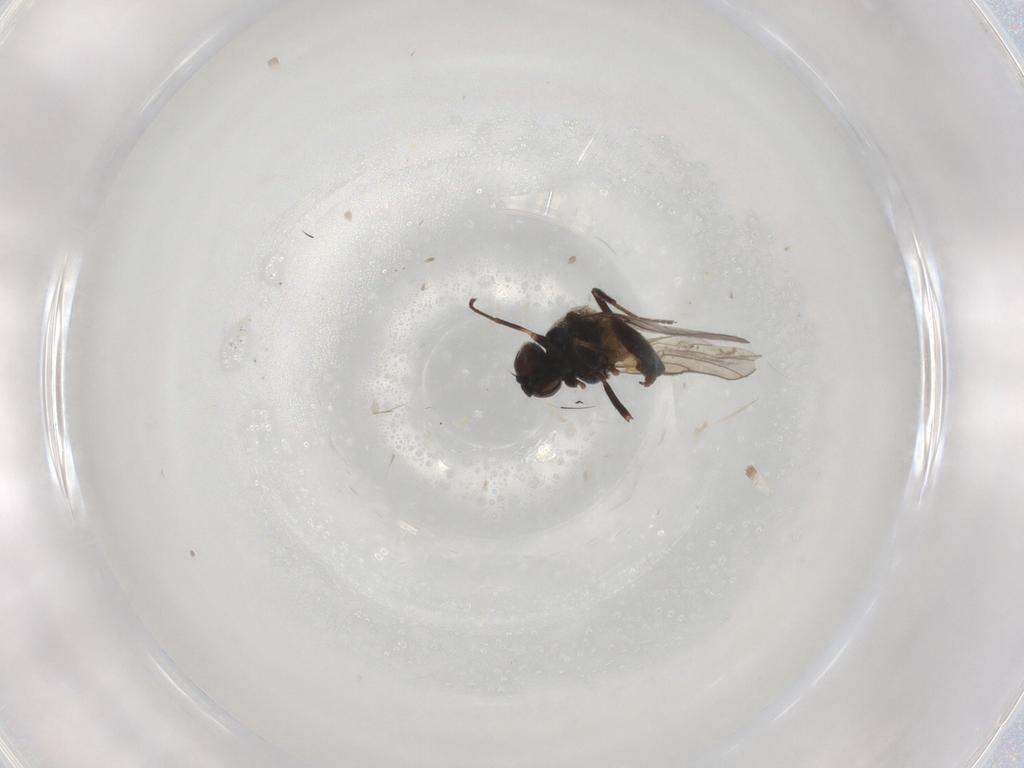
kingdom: Animalia
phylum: Arthropoda
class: Insecta
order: Diptera
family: Chloropidae
